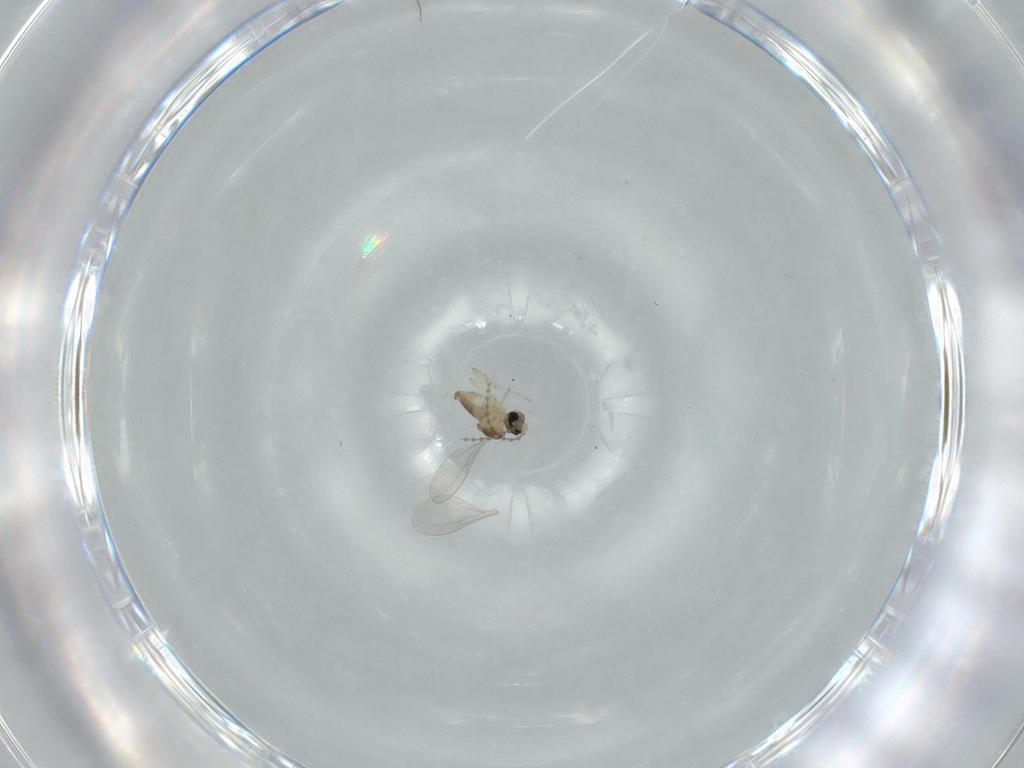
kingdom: Animalia
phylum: Arthropoda
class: Insecta
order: Diptera
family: Cecidomyiidae
